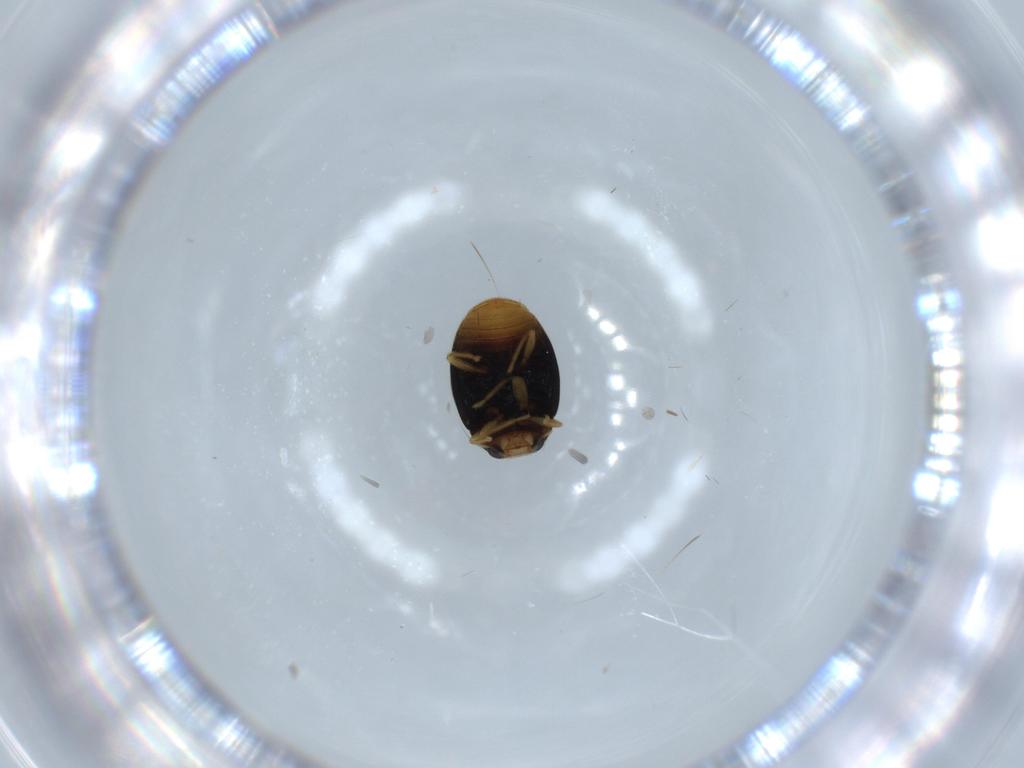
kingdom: Animalia
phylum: Arthropoda
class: Insecta
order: Coleoptera
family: Coccinellidae
